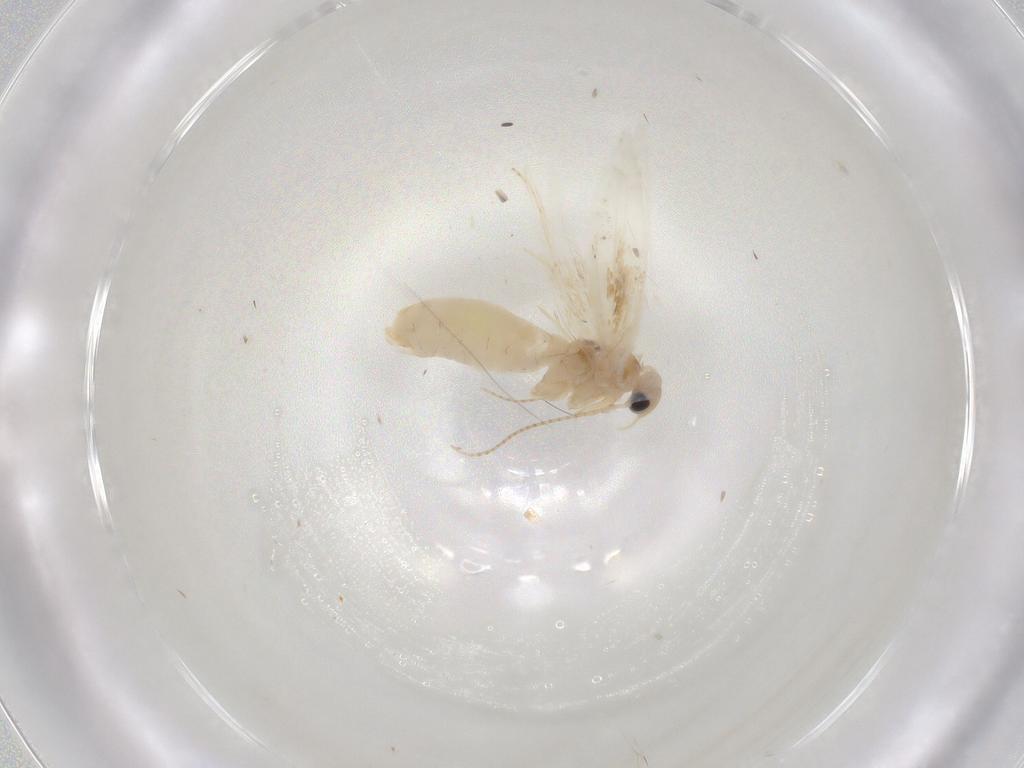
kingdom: Animalia
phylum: Arthropoda
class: Insecta
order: Lepidoptera
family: Bucculatricidae
